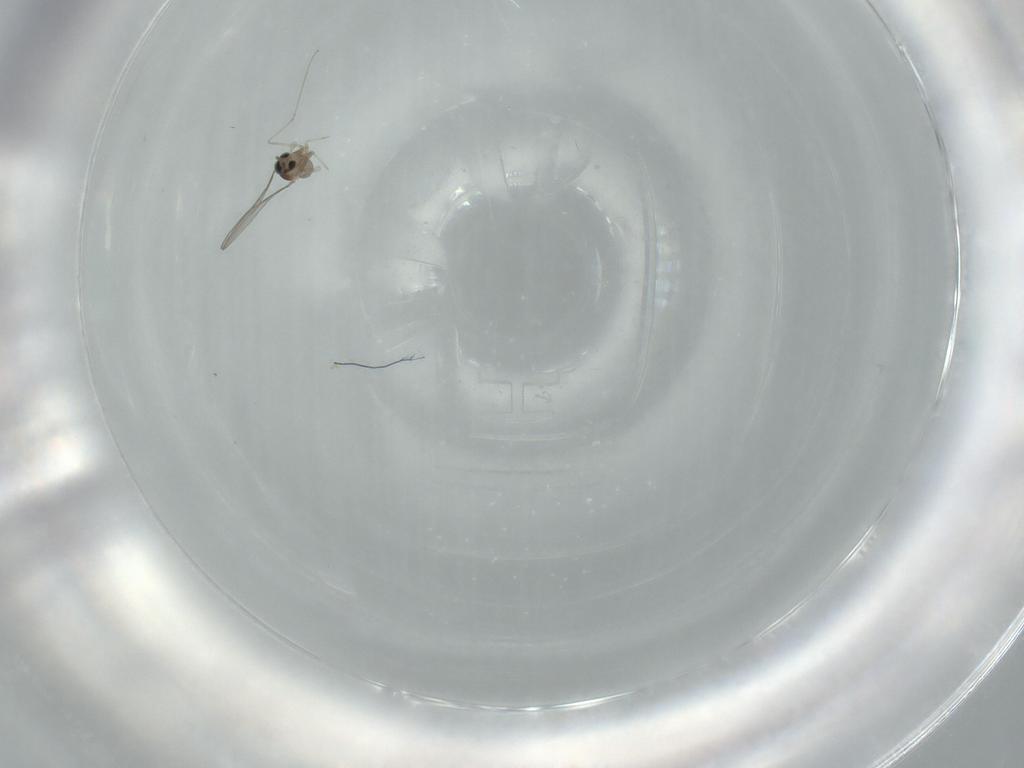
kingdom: Animalia
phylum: Arthropoda
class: Insecta
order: Diptera
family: Cecidomyiidae
